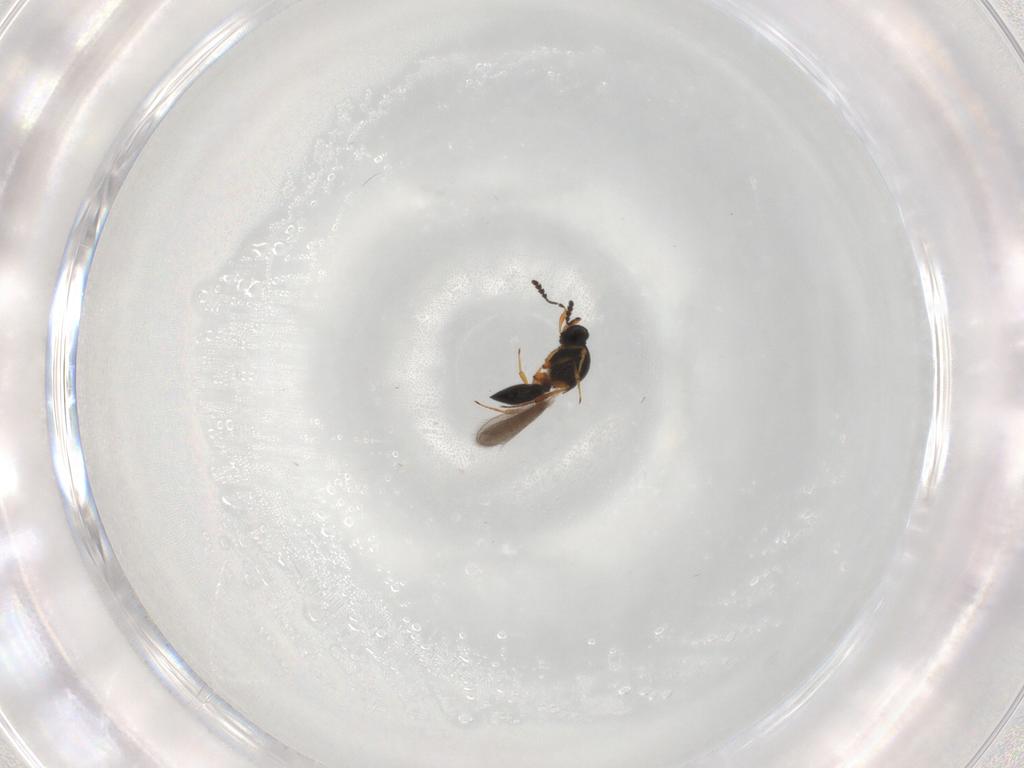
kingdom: Animalia
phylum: Arthropoda
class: Insecta
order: Hymenoptera
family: Platygastridae
